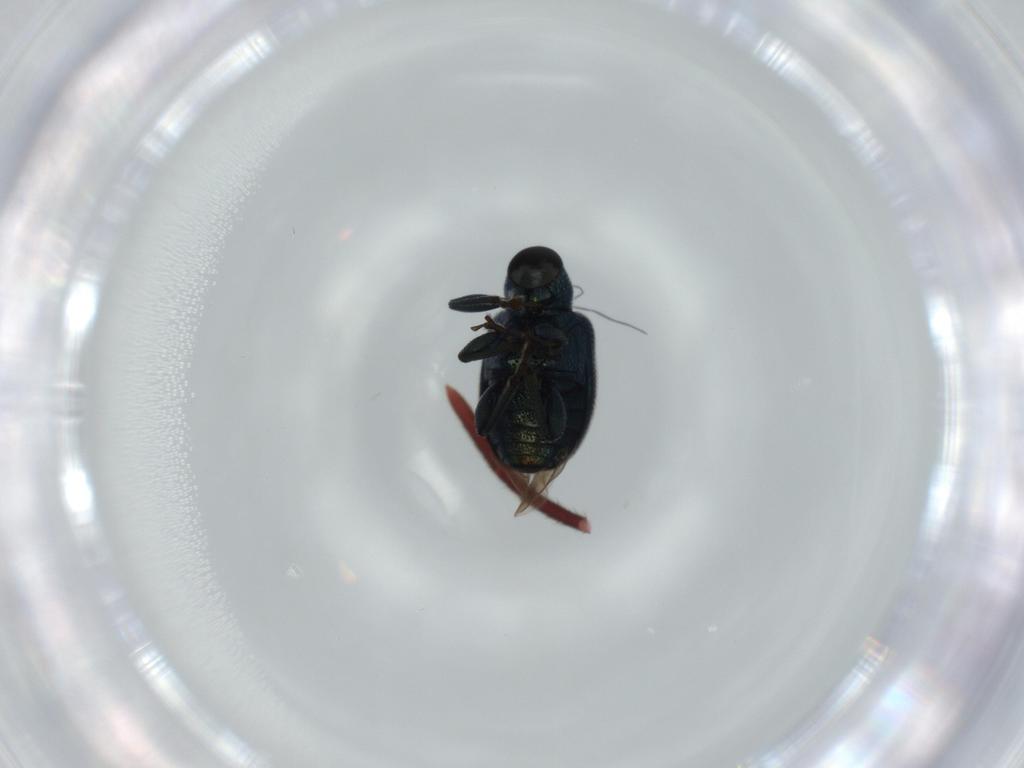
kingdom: Animalia
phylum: Arthropoda
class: Insecta
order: Coleoptera
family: Attelabidae
